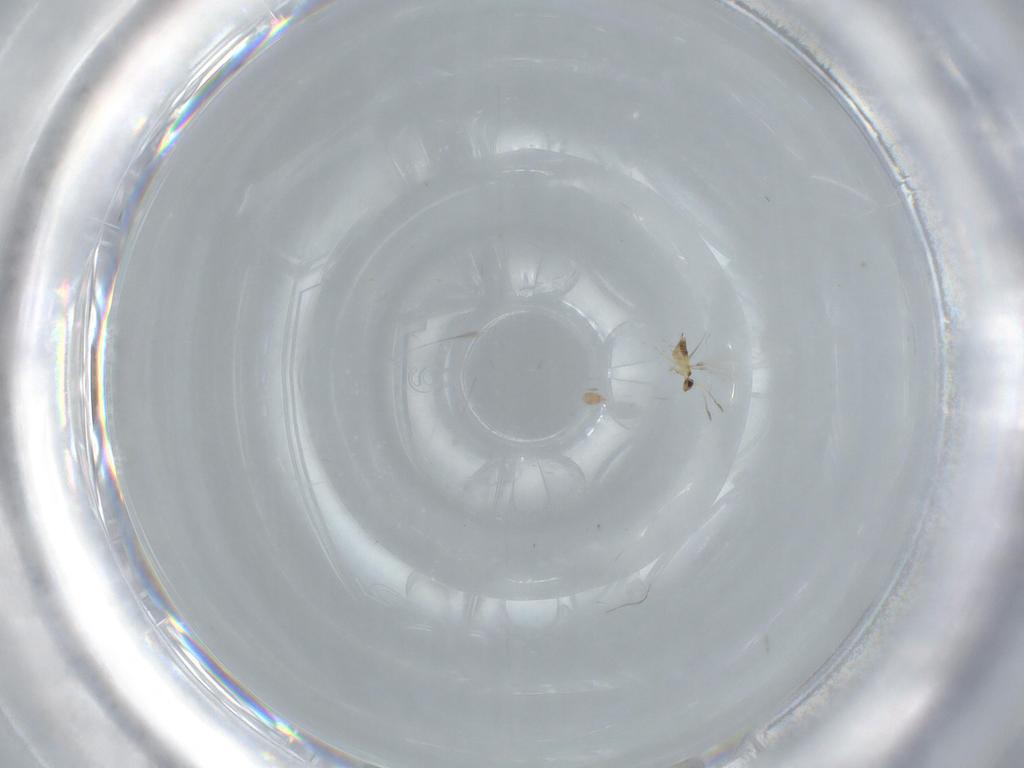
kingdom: Animalia
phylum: Arthropoda
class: Insecta
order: Hymenoptera
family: Mymaridae
